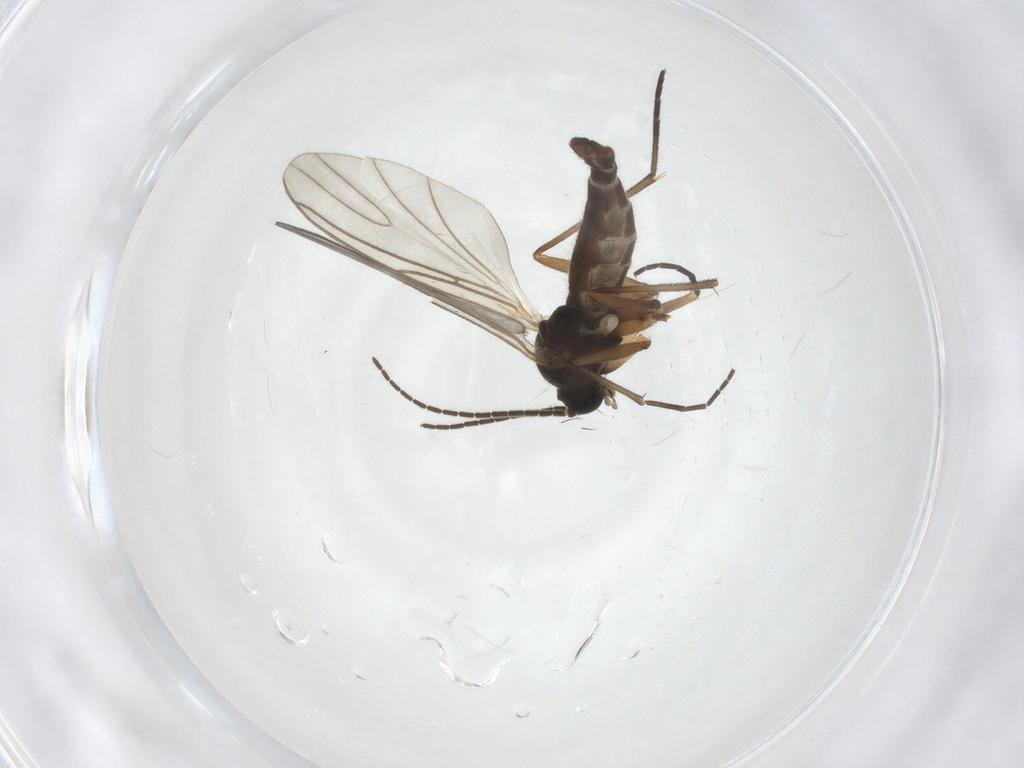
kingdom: Animalia
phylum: Arthropoda
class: Insecta
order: Diptera
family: Sciaridae
